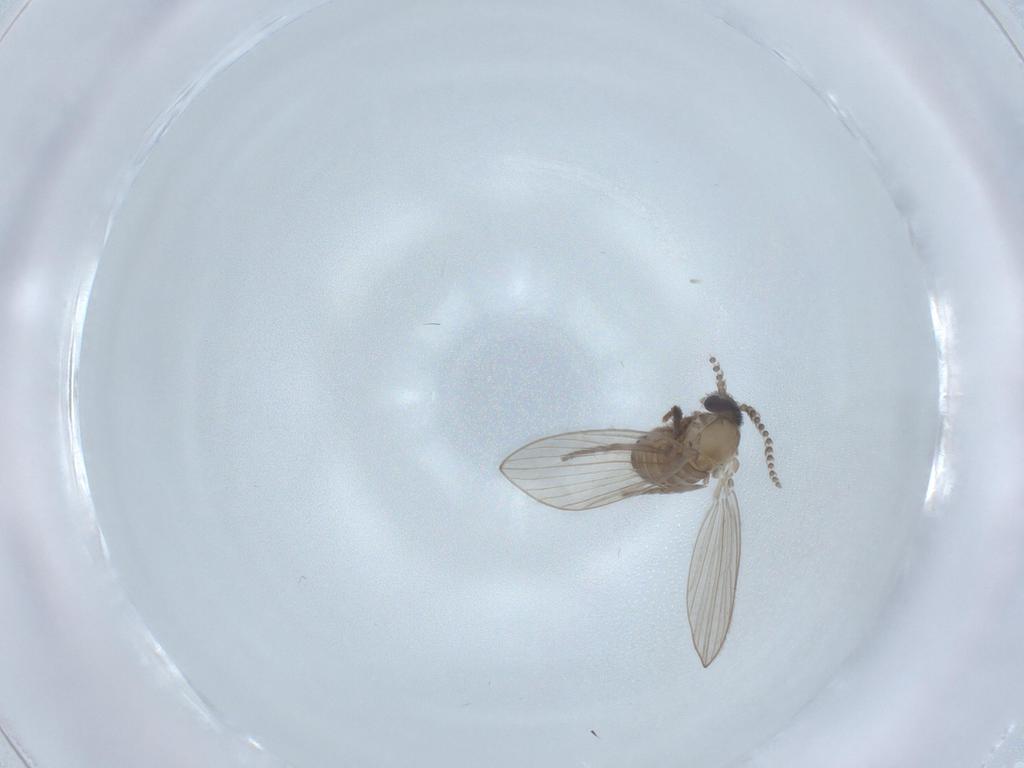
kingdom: Animalia
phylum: Arthropoda
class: Insecta
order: Diptera
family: Psychodidae
